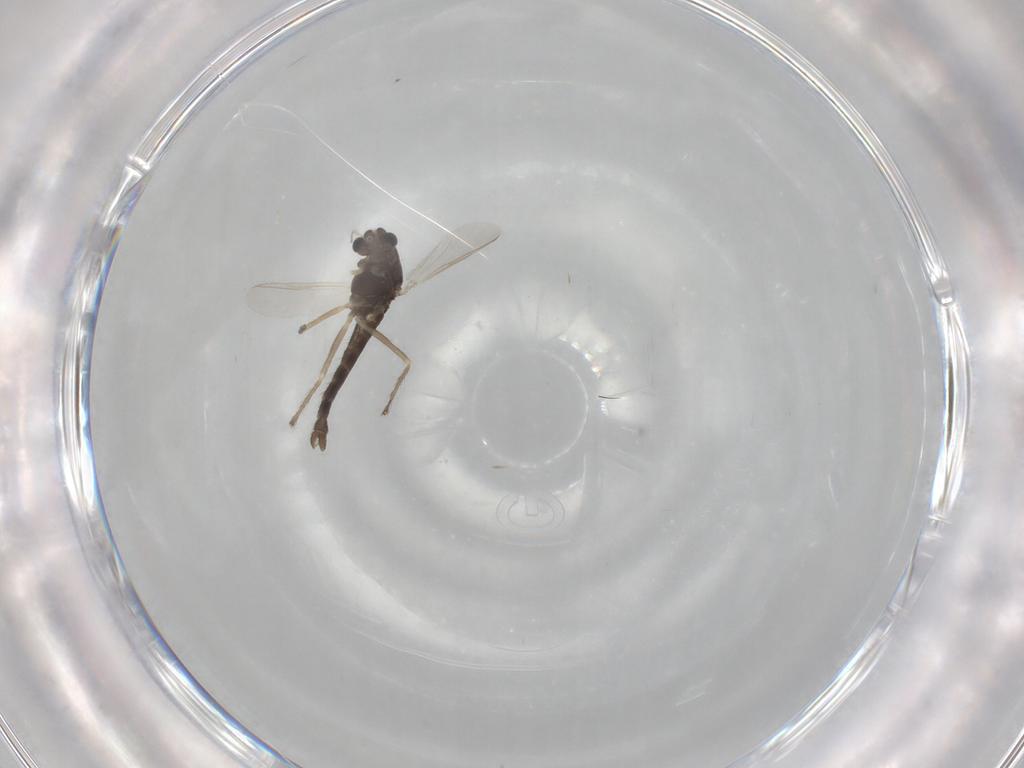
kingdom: Animalia
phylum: Arthropoda
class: Insecta
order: Diptera
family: Chironomidae
